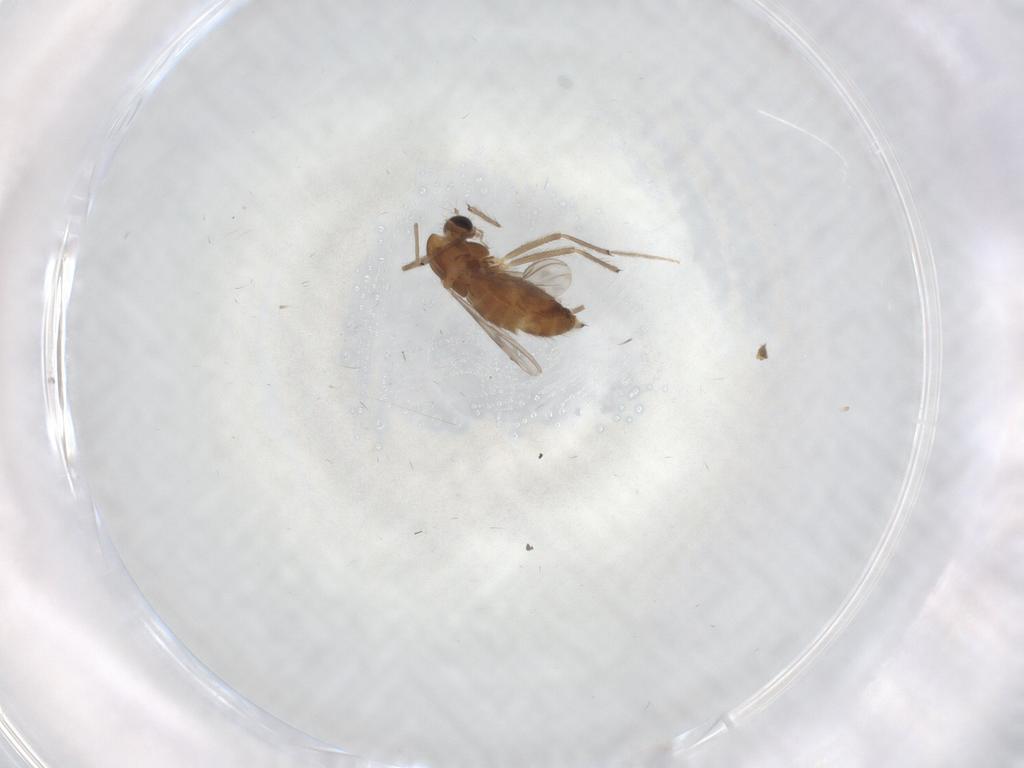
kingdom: Animalia
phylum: Arthropoda
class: Insecta
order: Diptera
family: Chironomidae
